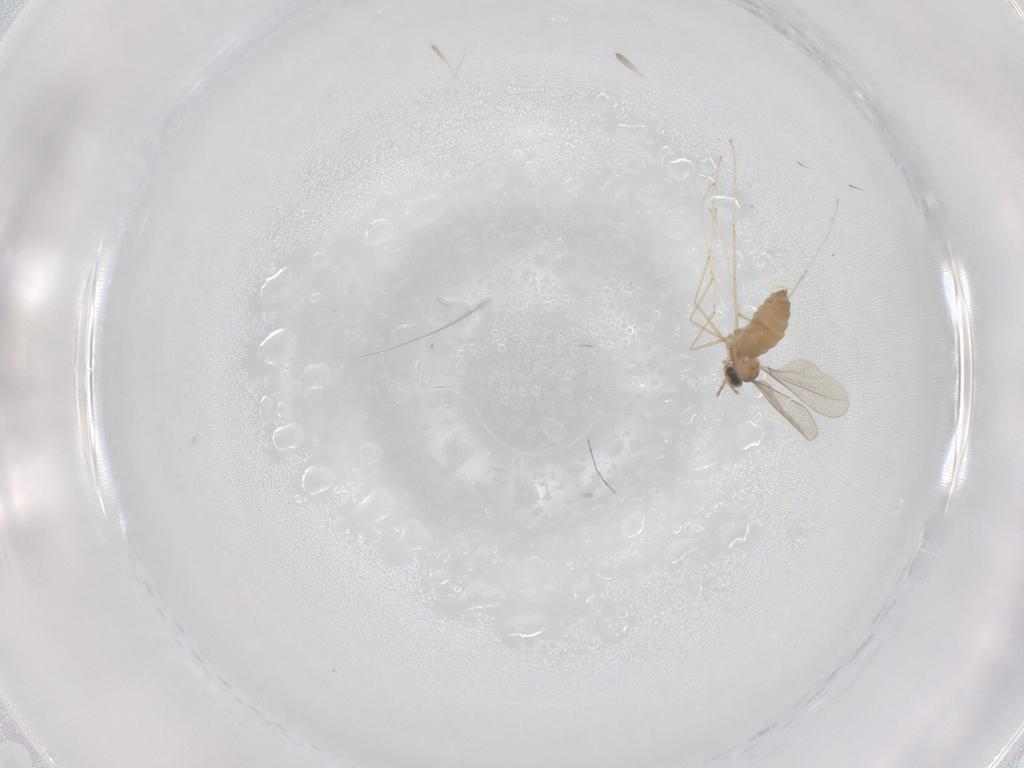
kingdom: Animalia
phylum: Arthropoda
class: Insecta
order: Diptera
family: Cecidomyiidae
